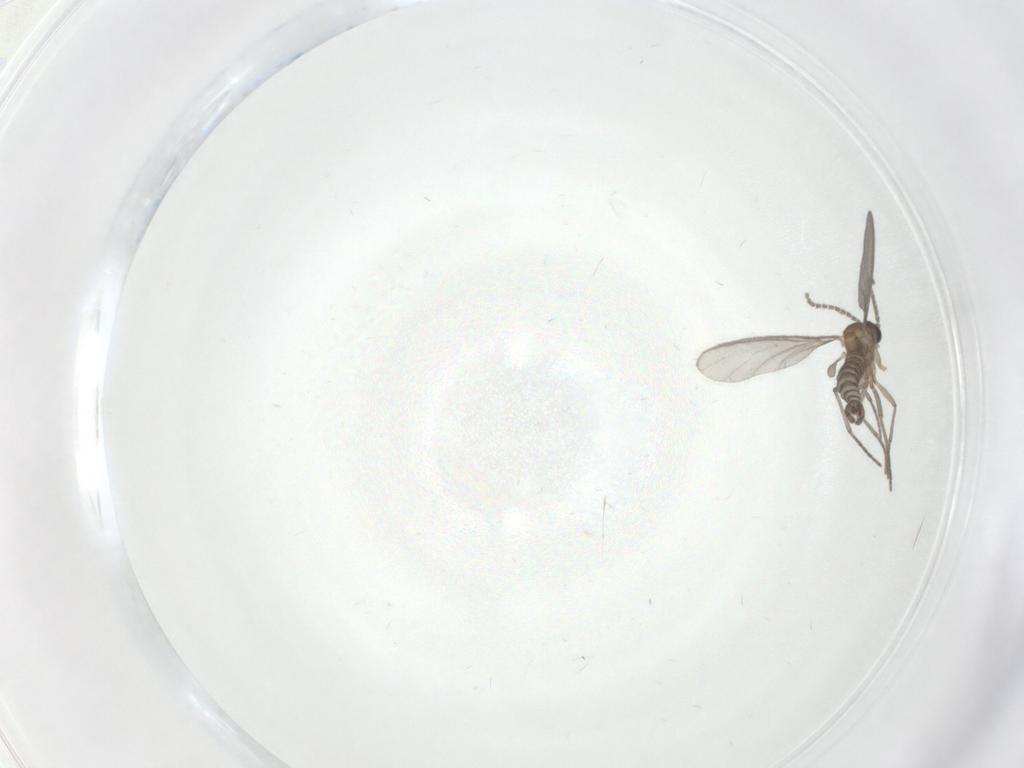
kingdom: Animalia
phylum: Arthropoda
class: Insecta
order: Diptera
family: Sciaridae
